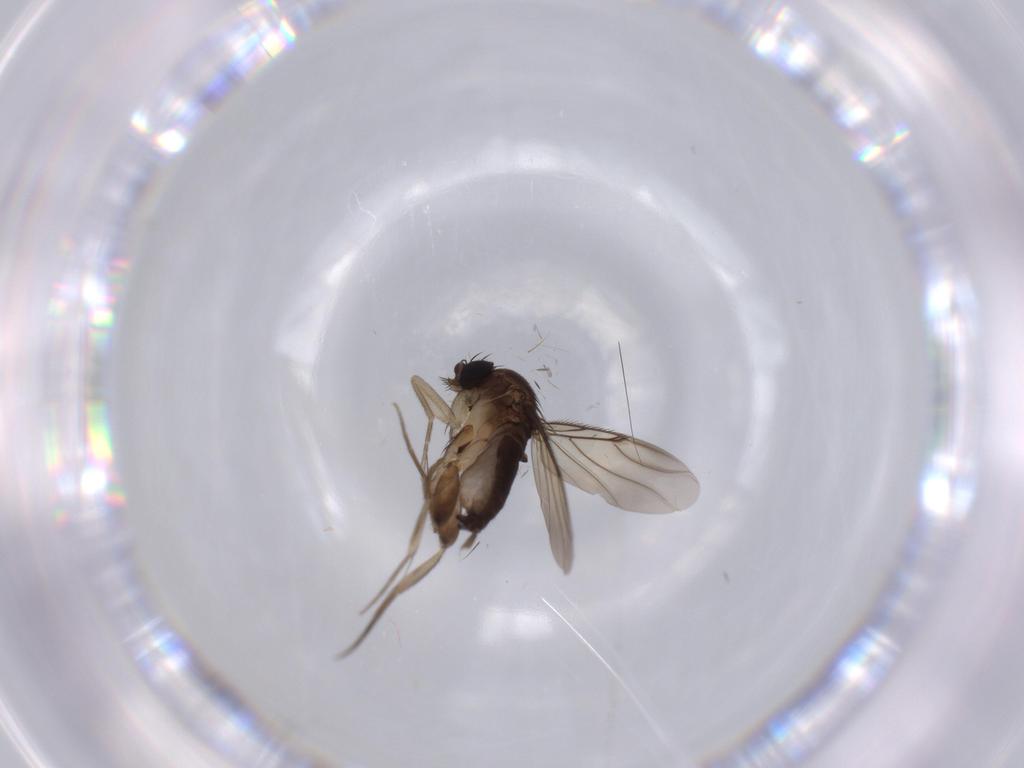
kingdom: Animalia
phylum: Arthropoda
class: Insecta
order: Diptera
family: Phoridae
